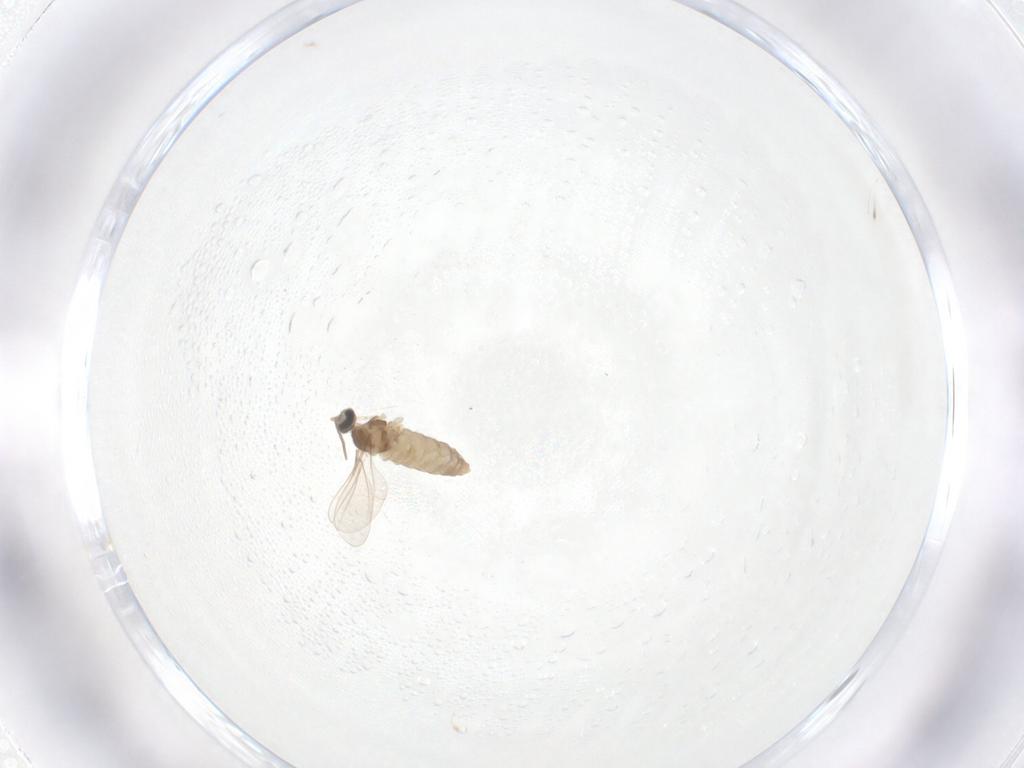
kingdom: Animalia
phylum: Arthropoda
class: Insecta
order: Diptera
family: Cecidomyiidae
